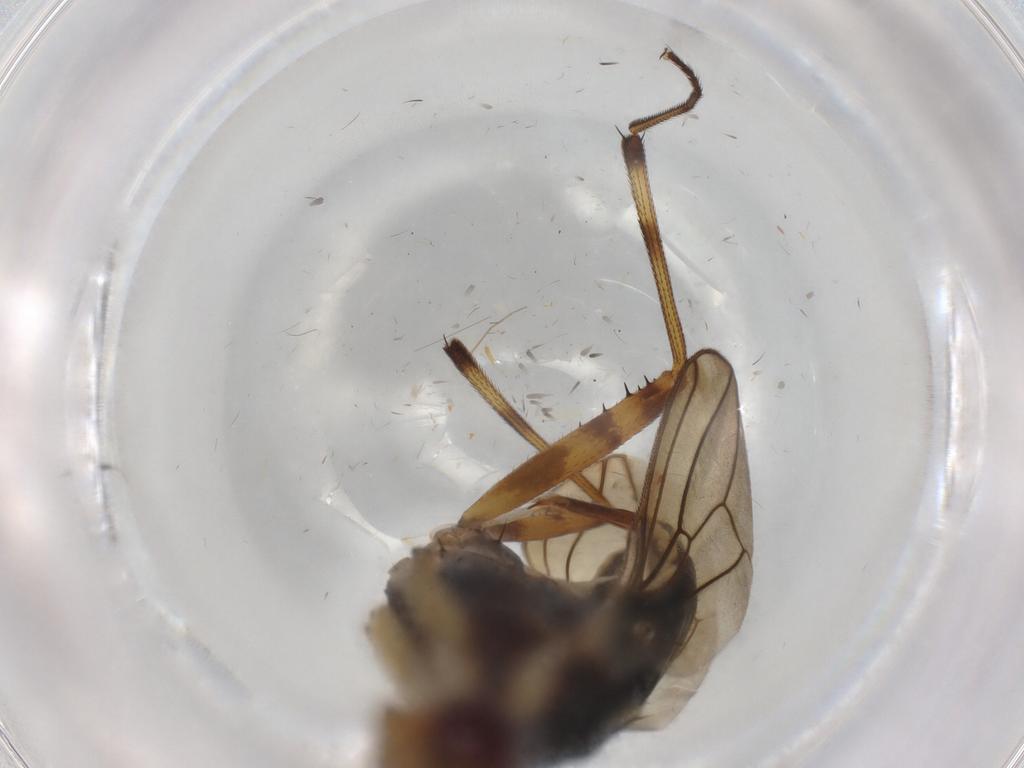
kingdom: Animalia
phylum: Arthropoda
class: Insecta
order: Diptera
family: Neriidae
